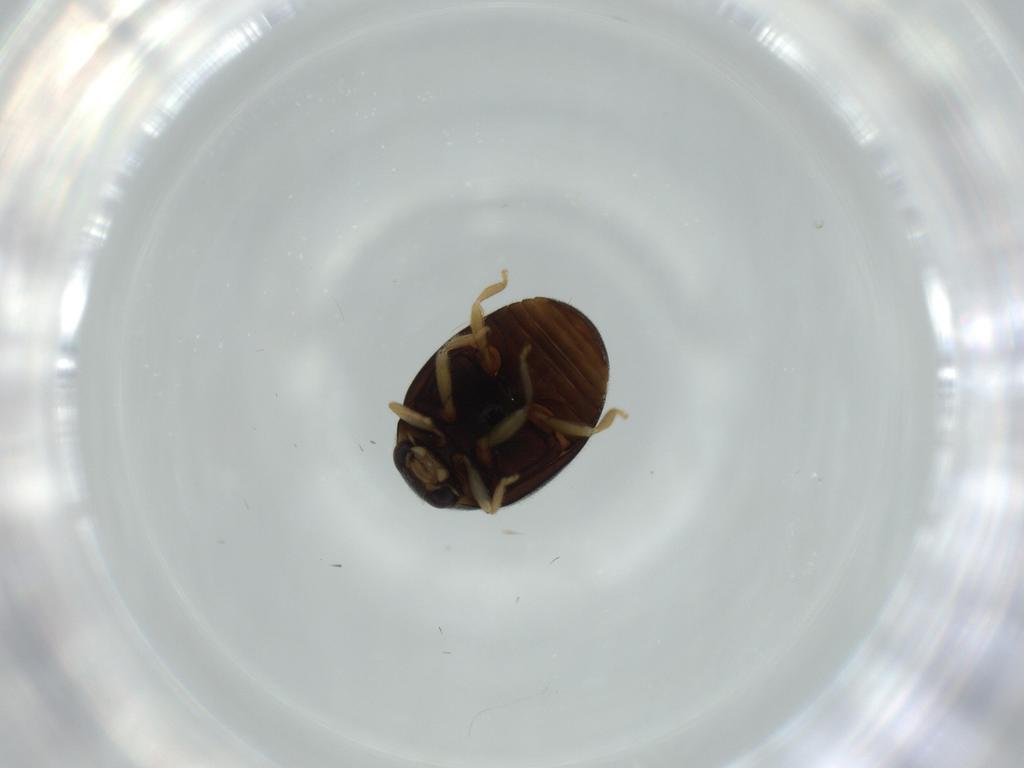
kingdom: Animalia
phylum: Arthropoda
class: Insecta
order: Coleoptera
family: Coccinellidae
